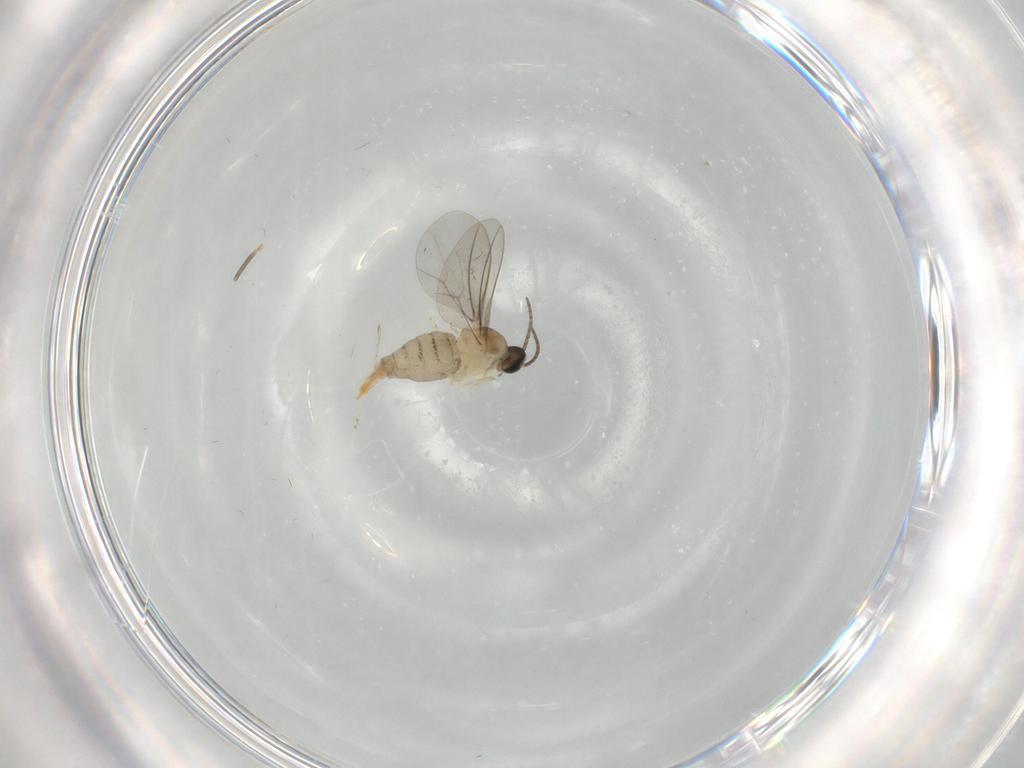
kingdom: Animalia
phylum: Arthropoda
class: Insecta
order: Diptera
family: Cecidomyiidae
